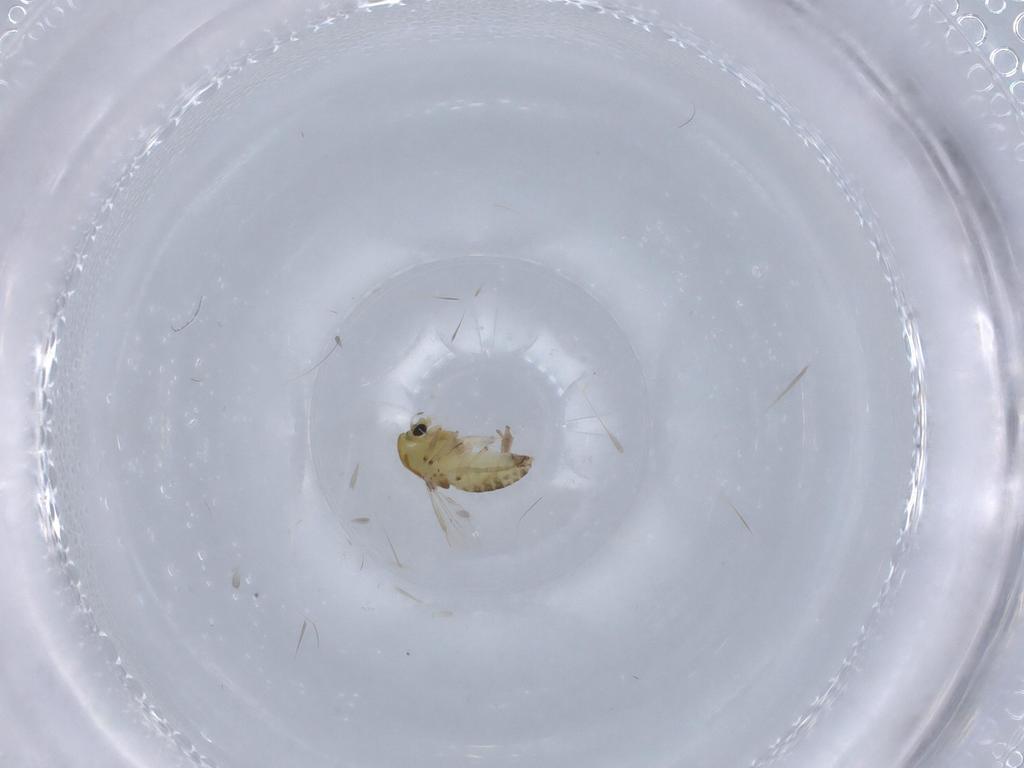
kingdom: Animalia
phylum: Arthropoda
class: Insecta
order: Diptera
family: Chironomidae
